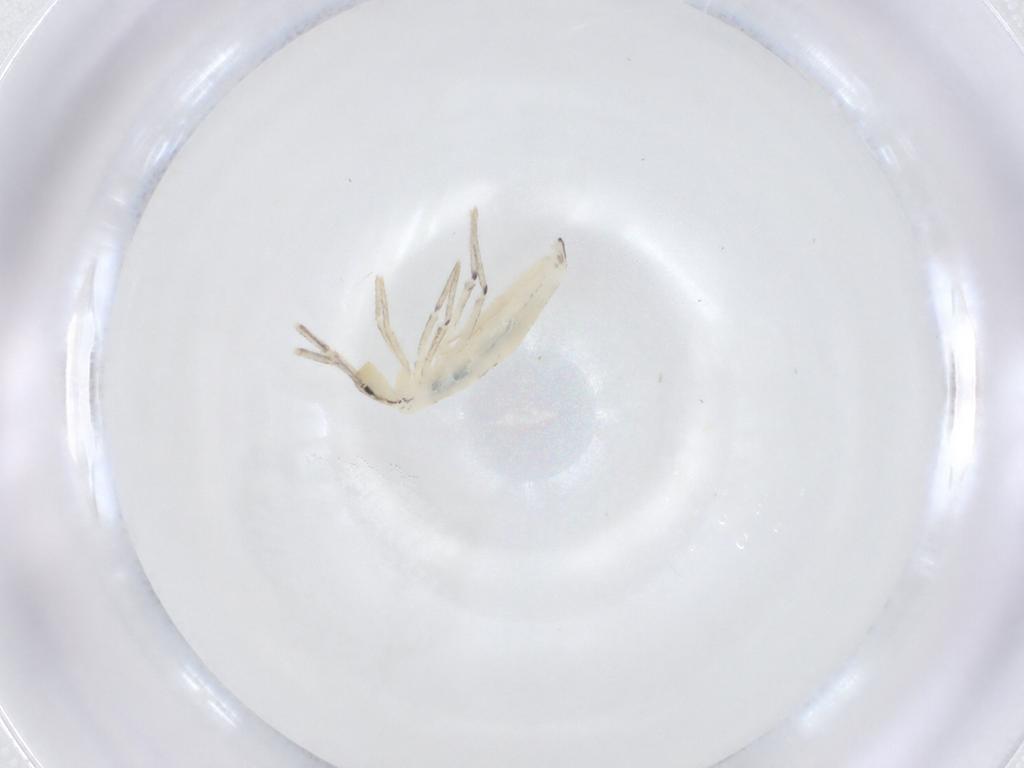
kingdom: Animalia
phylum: Arthropoda
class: Collembola
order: Entomobryomorpha
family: Entomobryidae
